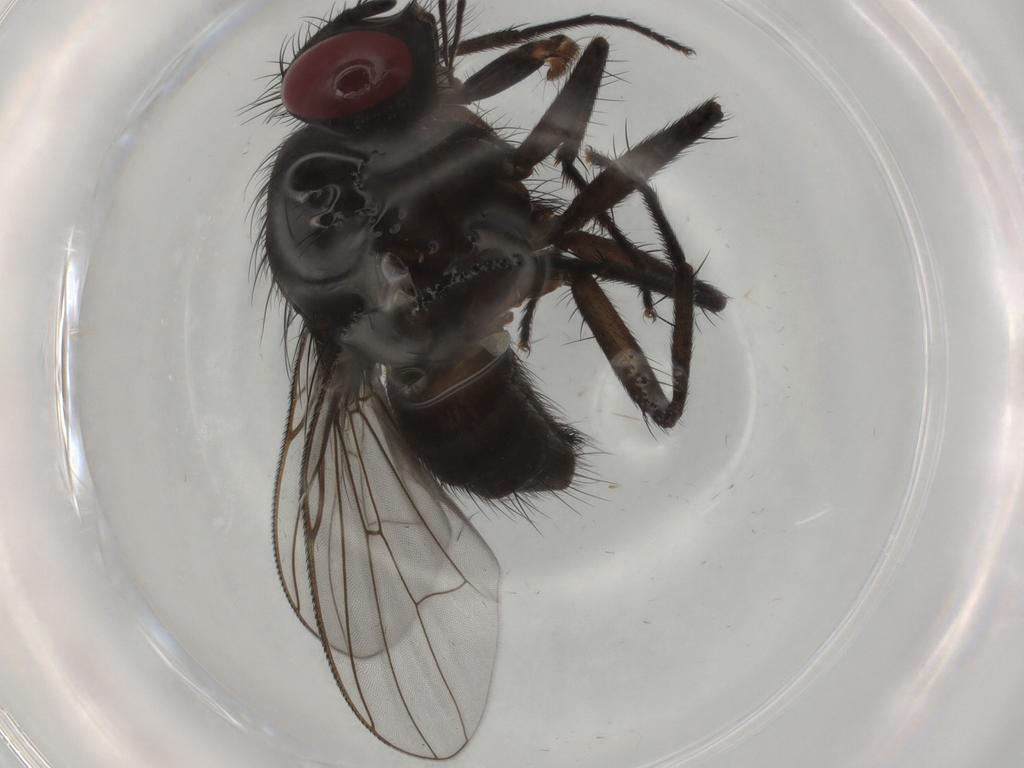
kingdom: Animalia
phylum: Arthropoda
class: Insecta
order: Diptera
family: Muscidae
